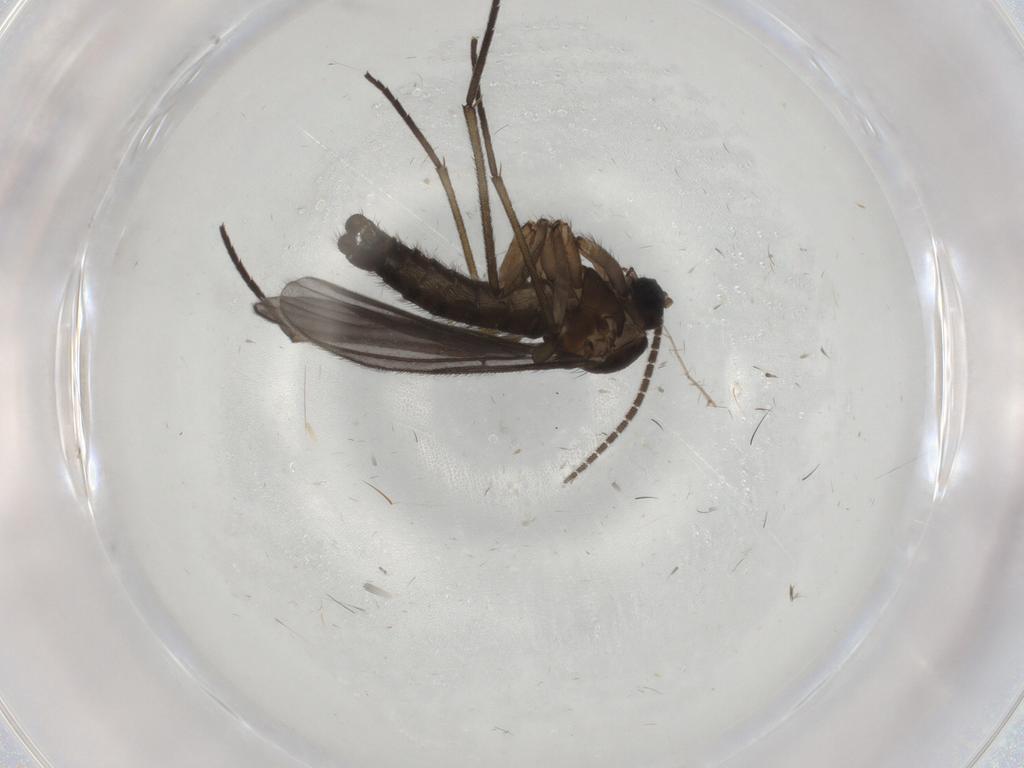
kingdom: Animalia
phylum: Arthropoda
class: Insecta
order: Diptera
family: Sciaridae
